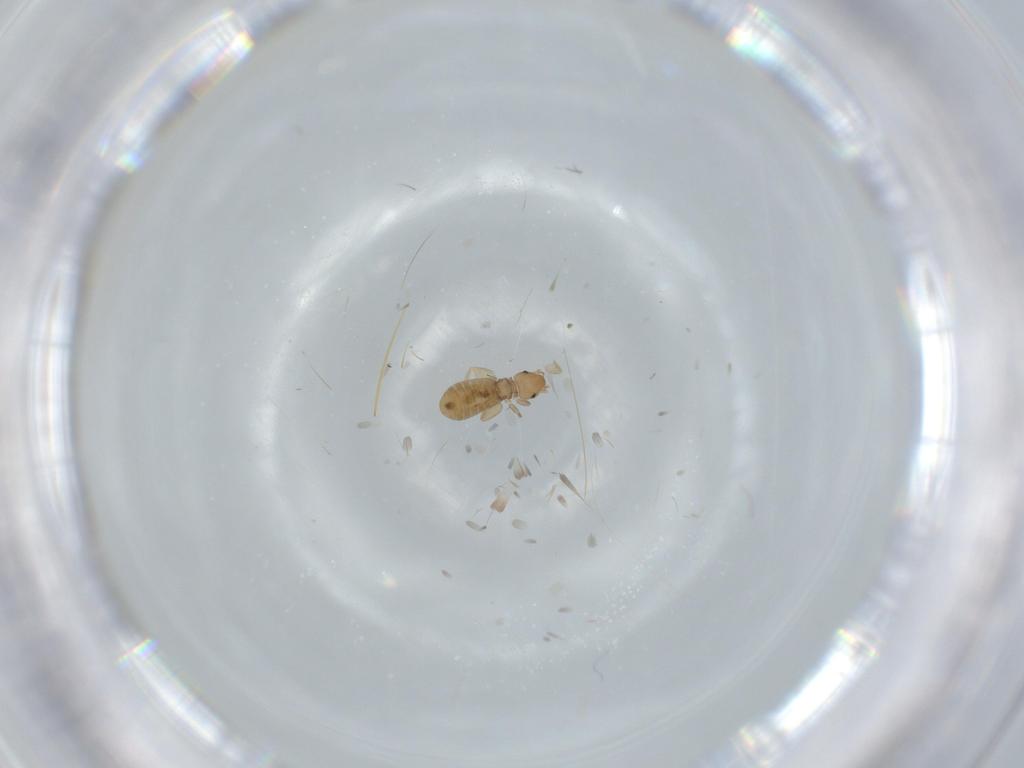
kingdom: Animalia
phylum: Arthropoda
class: Insecta
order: Psocodea
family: Liposcelididae
